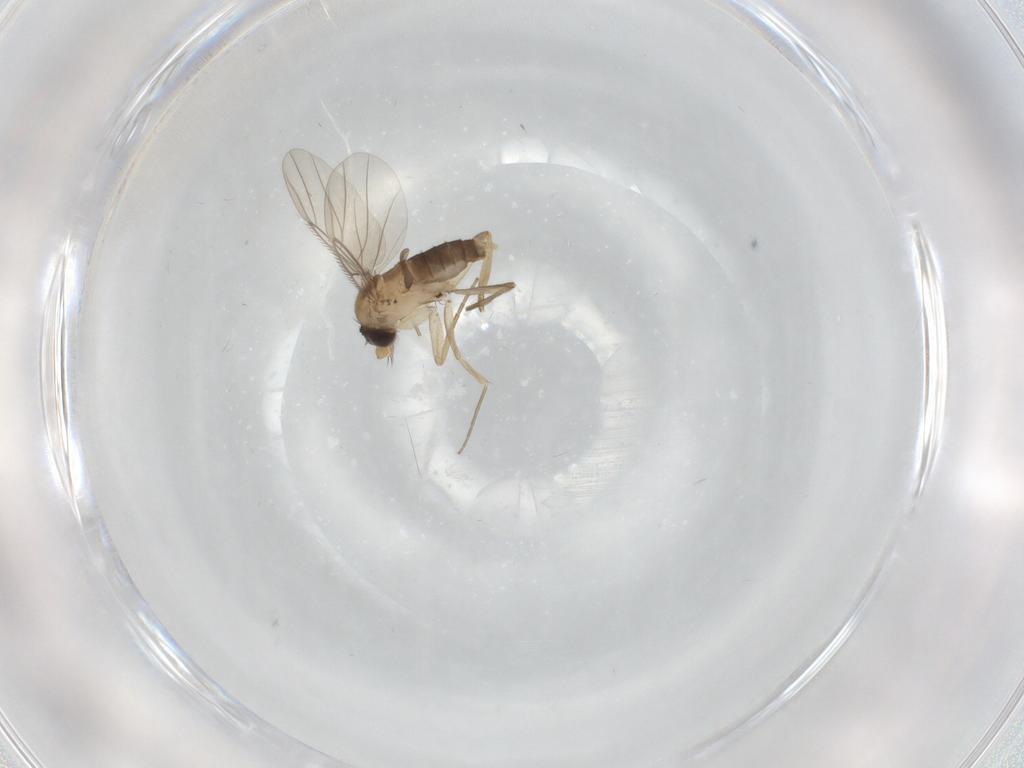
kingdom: Animalia
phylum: Arthropoda
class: Insecta
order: Diptera
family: Phoridae
